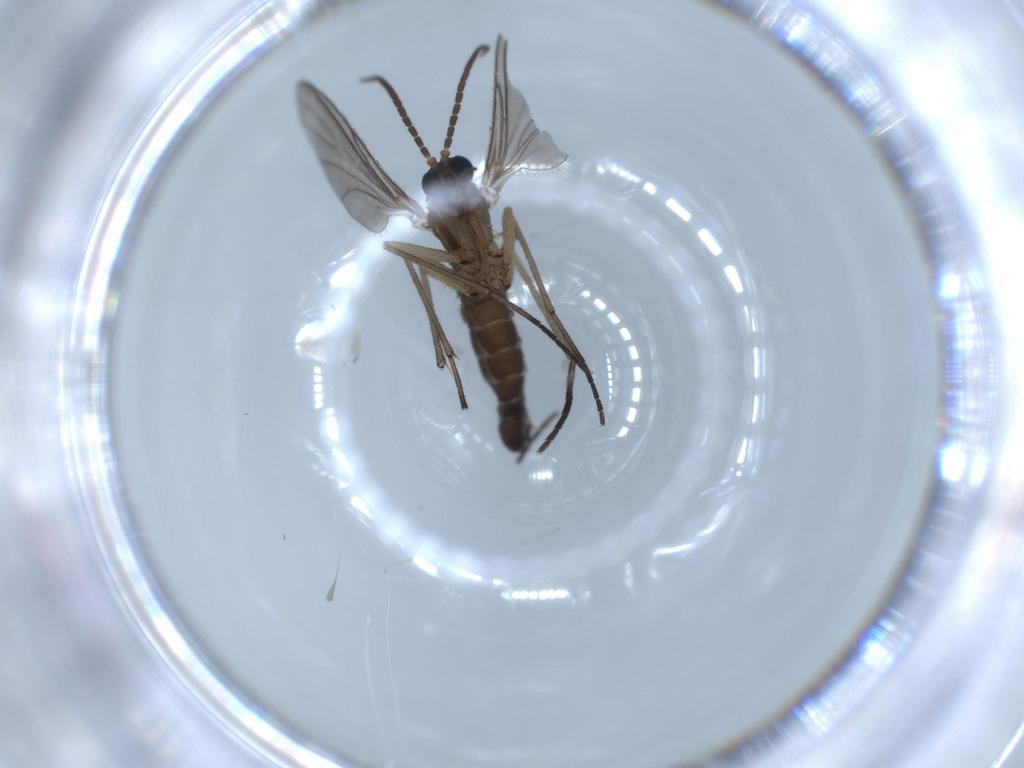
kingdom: Animalia
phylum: Arthropoda
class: Insecta
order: Diptera
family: Sciaridae
